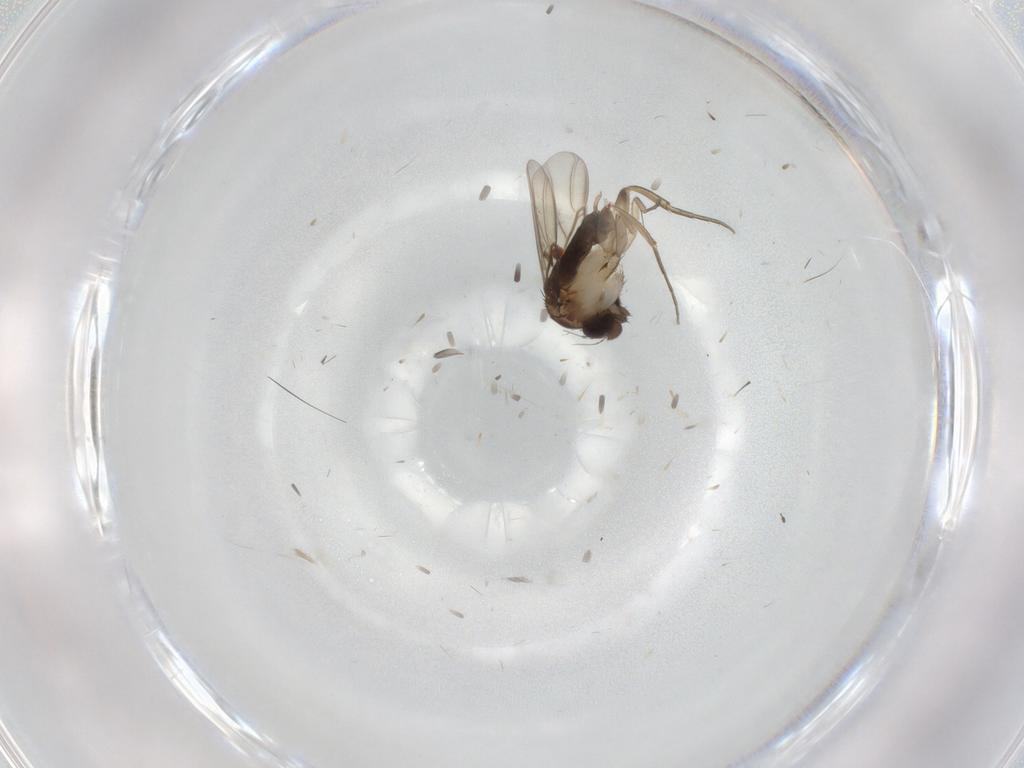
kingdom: Animalia
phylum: Arthropoda
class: Insecta
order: Diptera
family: Phoridae
